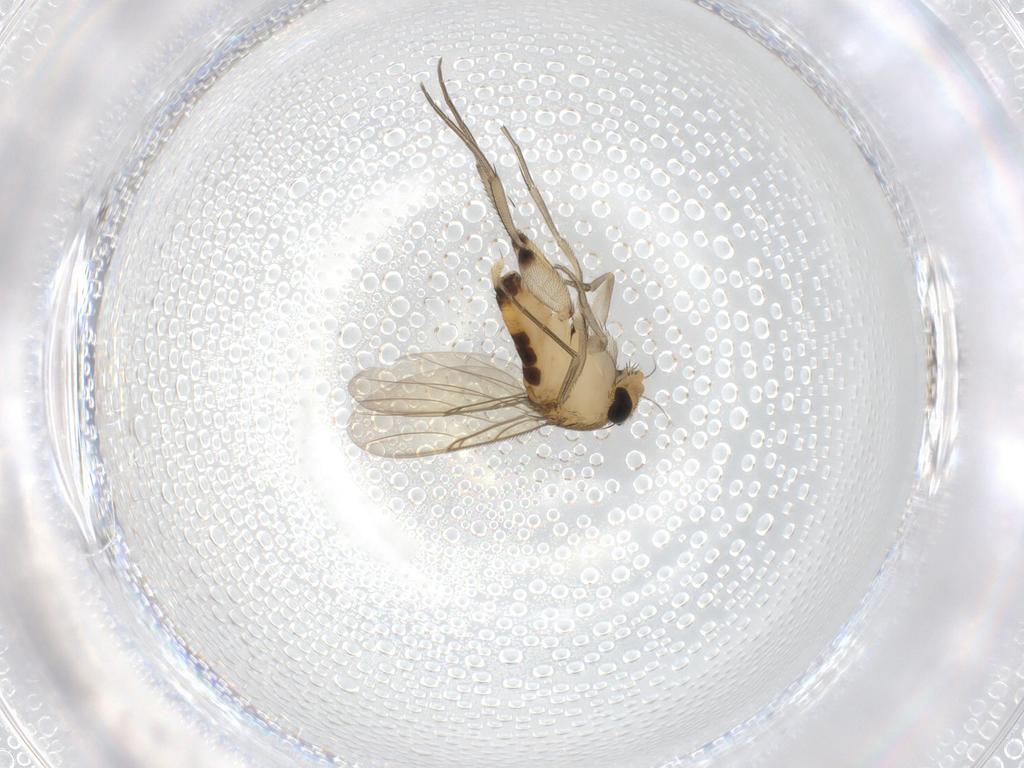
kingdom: Animalia
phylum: Arthropoda
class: Insecta
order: Diptera
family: Phoridae
